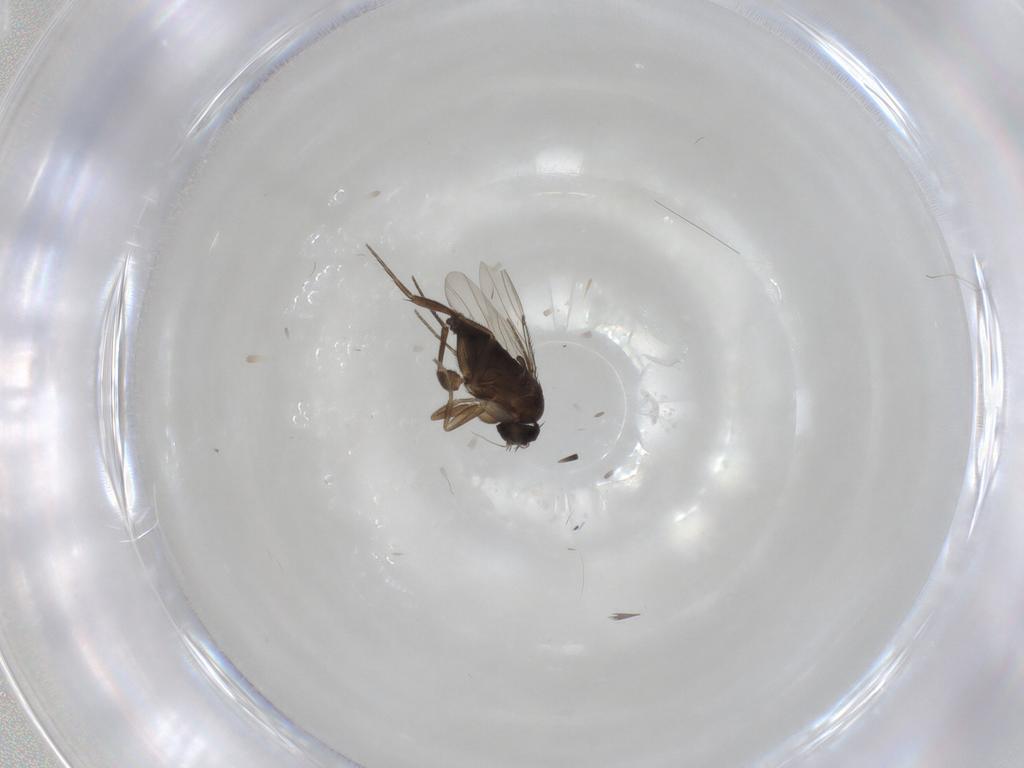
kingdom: Animalia
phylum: Arthropoda
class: Insecta
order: Diptera
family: Phoridae
